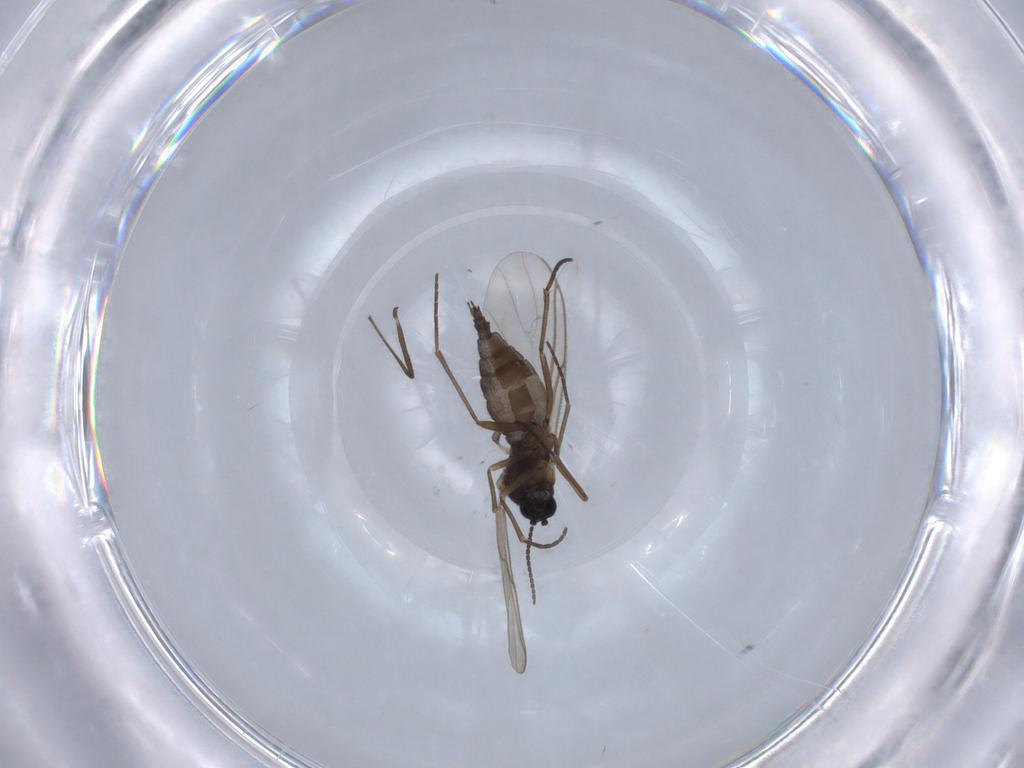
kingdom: Animalia
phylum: Arthropoda
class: Insecta
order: Diptera
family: Sciaridae
